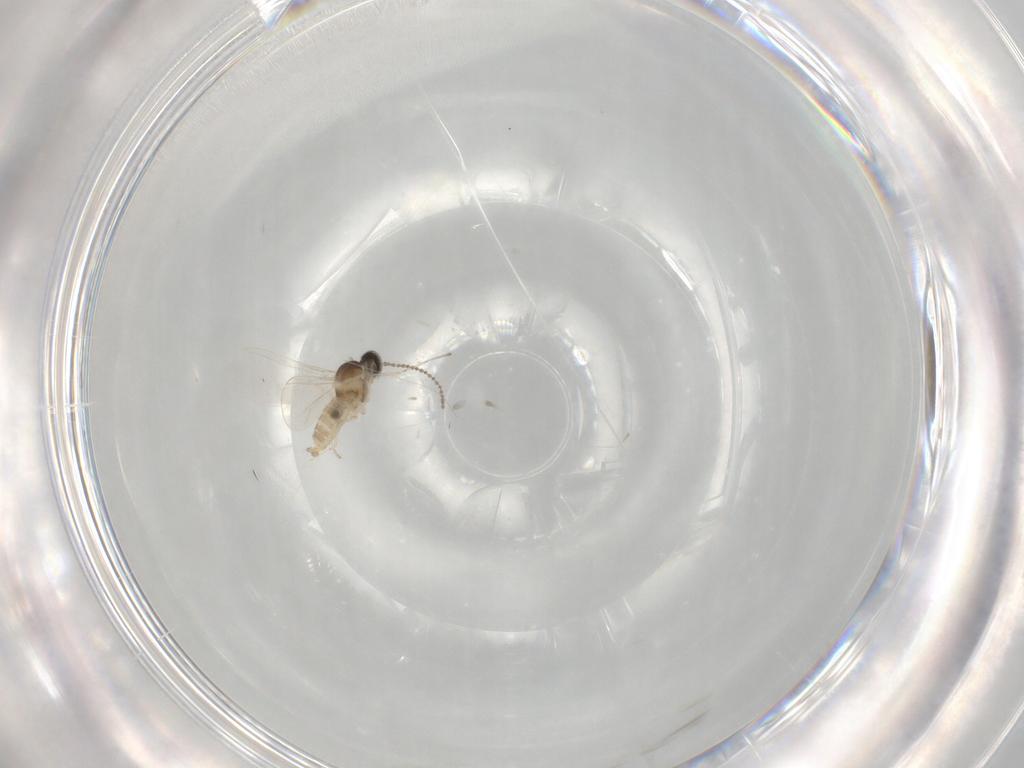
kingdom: Animalia
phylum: Arthropoda
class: Insecta
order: Diptera
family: Cecidomyiidae
